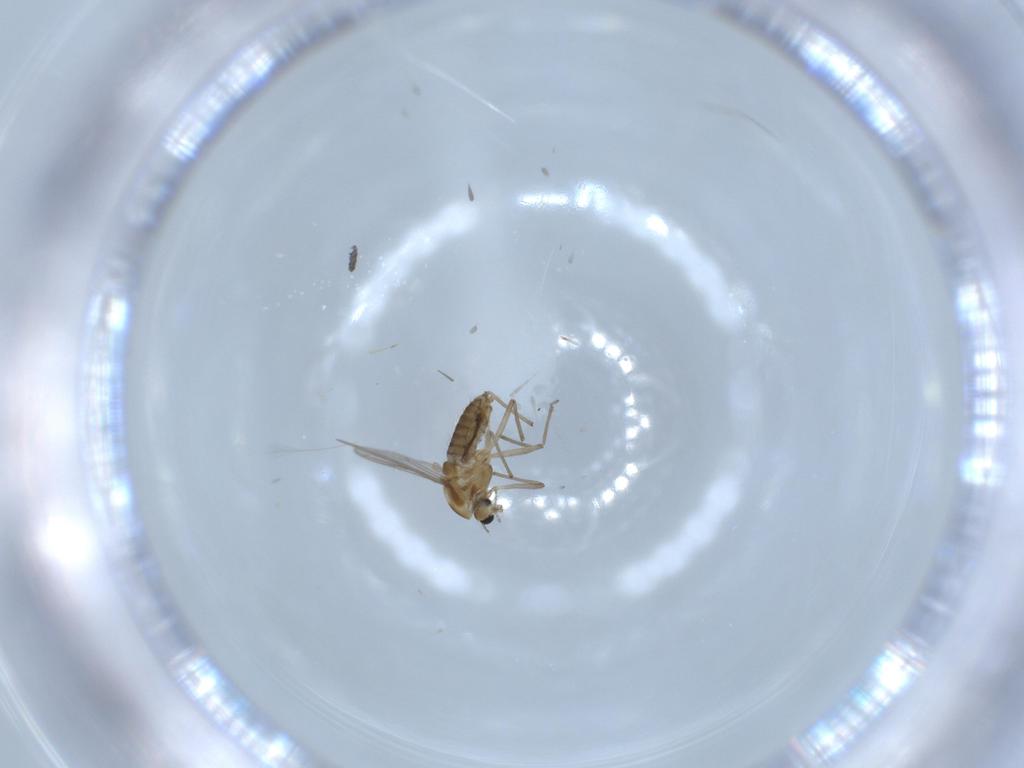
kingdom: Animalia
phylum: Arthropoda
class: Insecta
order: Diptera
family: Chironomidae
